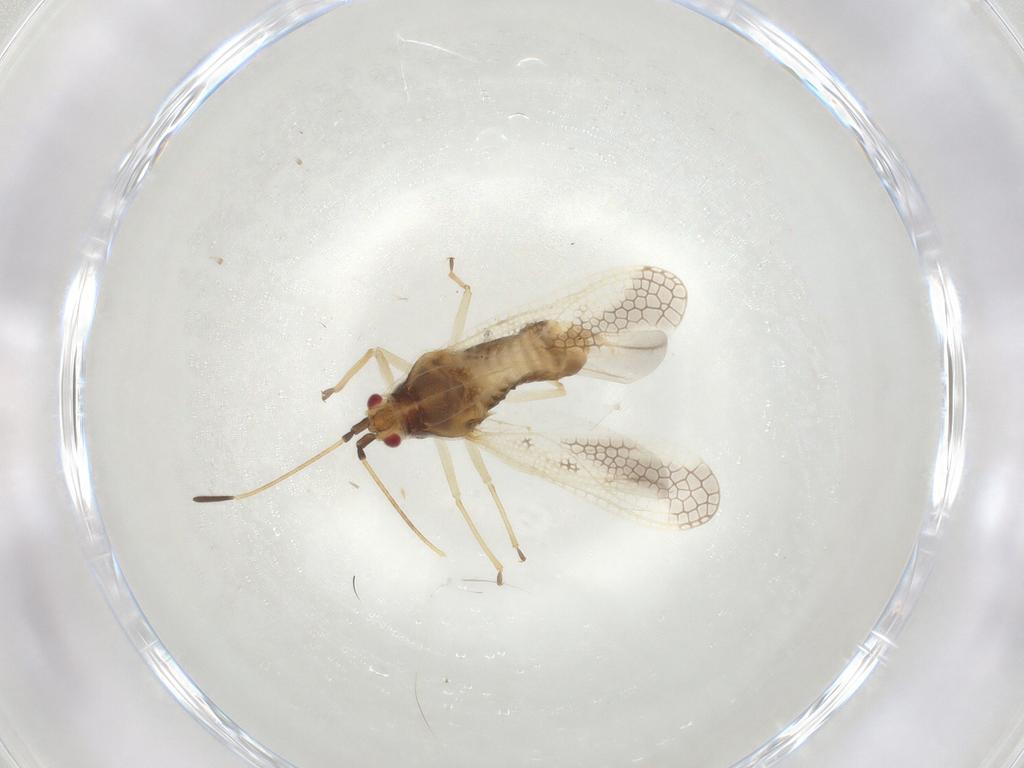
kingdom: Animalia
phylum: Arthropoda
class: Insecta
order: Hemiptera
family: Tingidae
